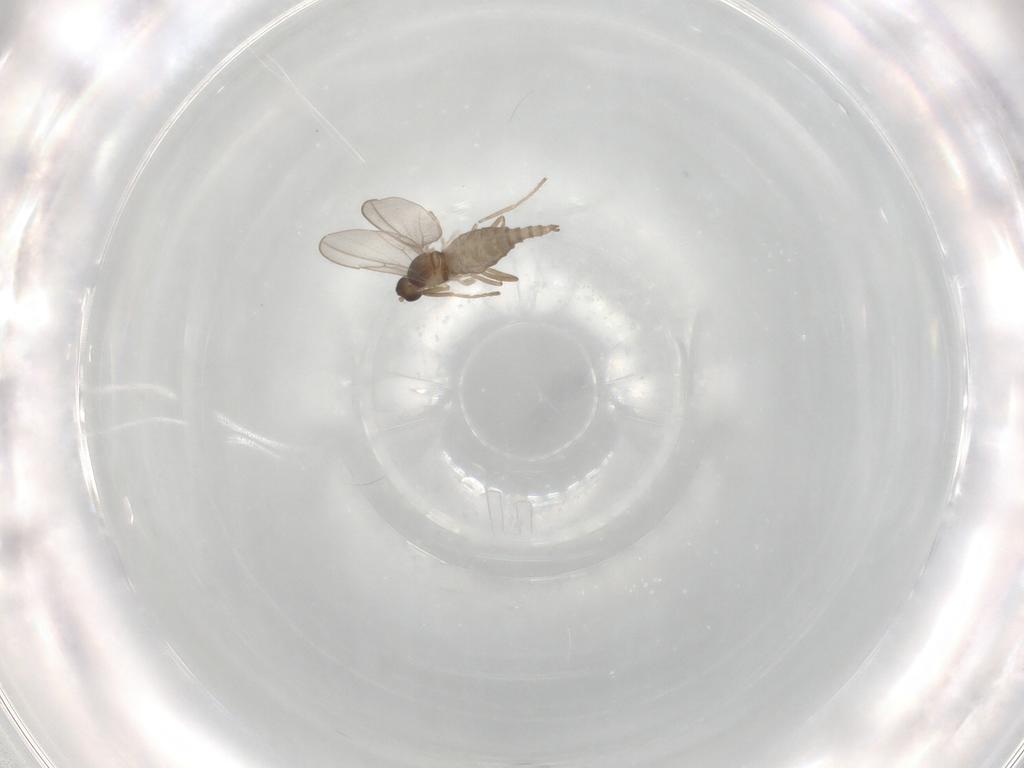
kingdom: Animalia
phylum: Arthropoda
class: Insecta
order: Diptera
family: Cecidomyiidae
